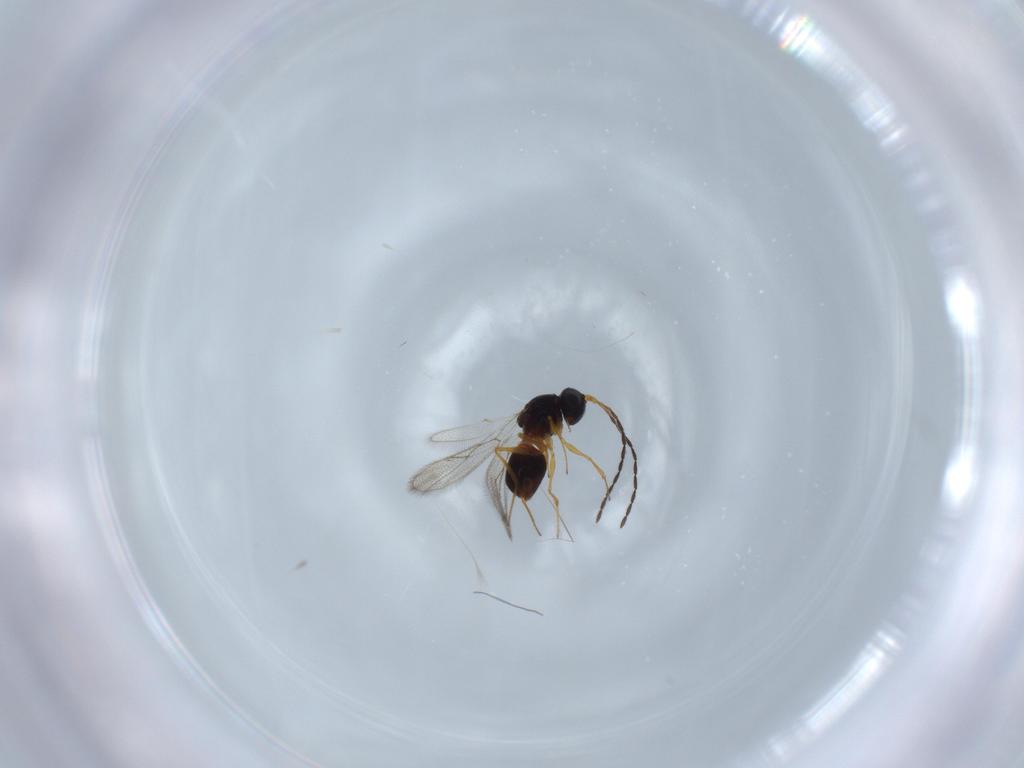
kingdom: Animalia
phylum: Arthropoda
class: Insecta
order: Hymenoptera
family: Figitidae
